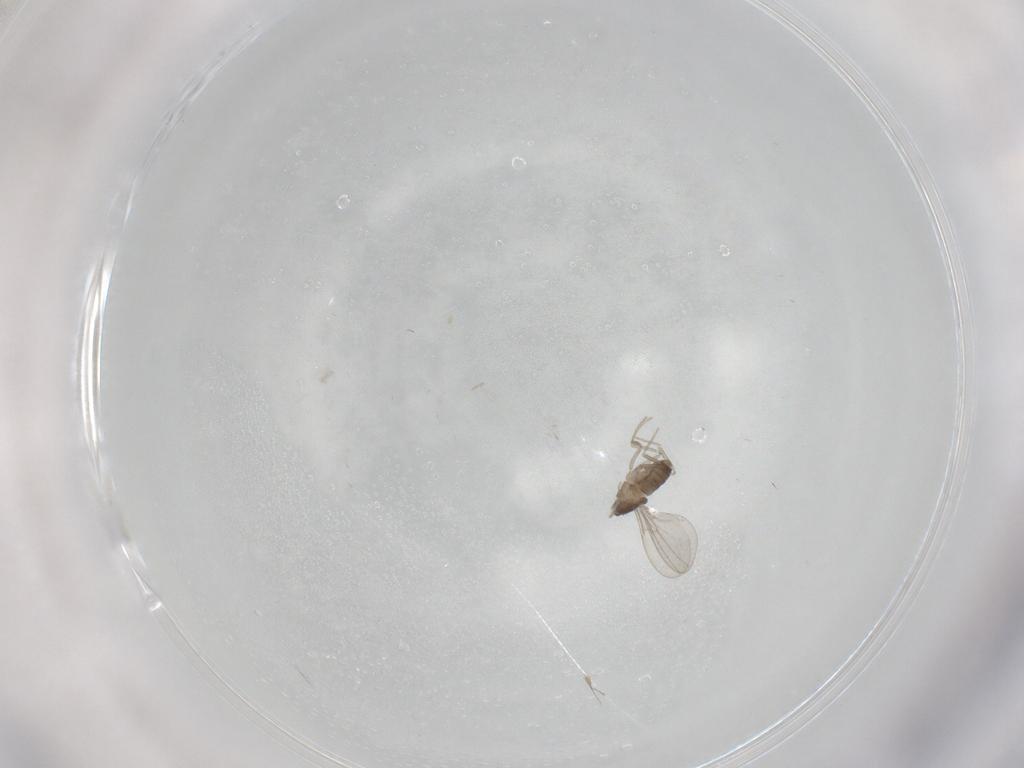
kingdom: Animalia
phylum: Arthropoda
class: Insecta
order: Diptera
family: Cecidomyiidae
